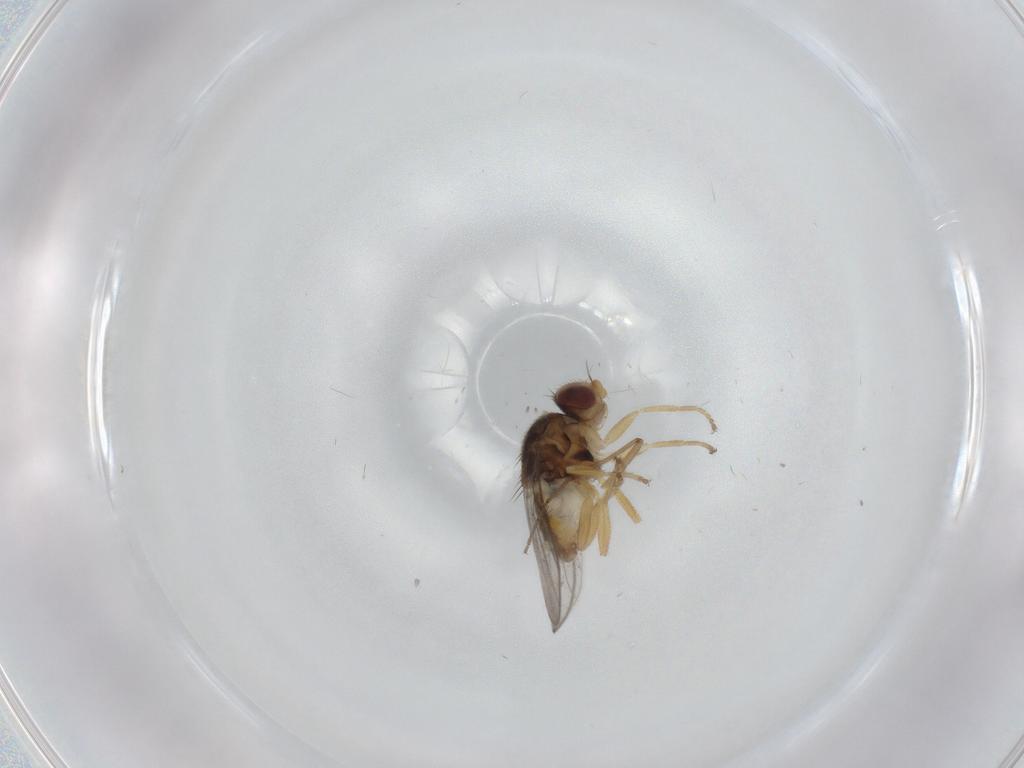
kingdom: Animalia
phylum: Arthropoda
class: Insecta
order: Diptera
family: Chloropidae
